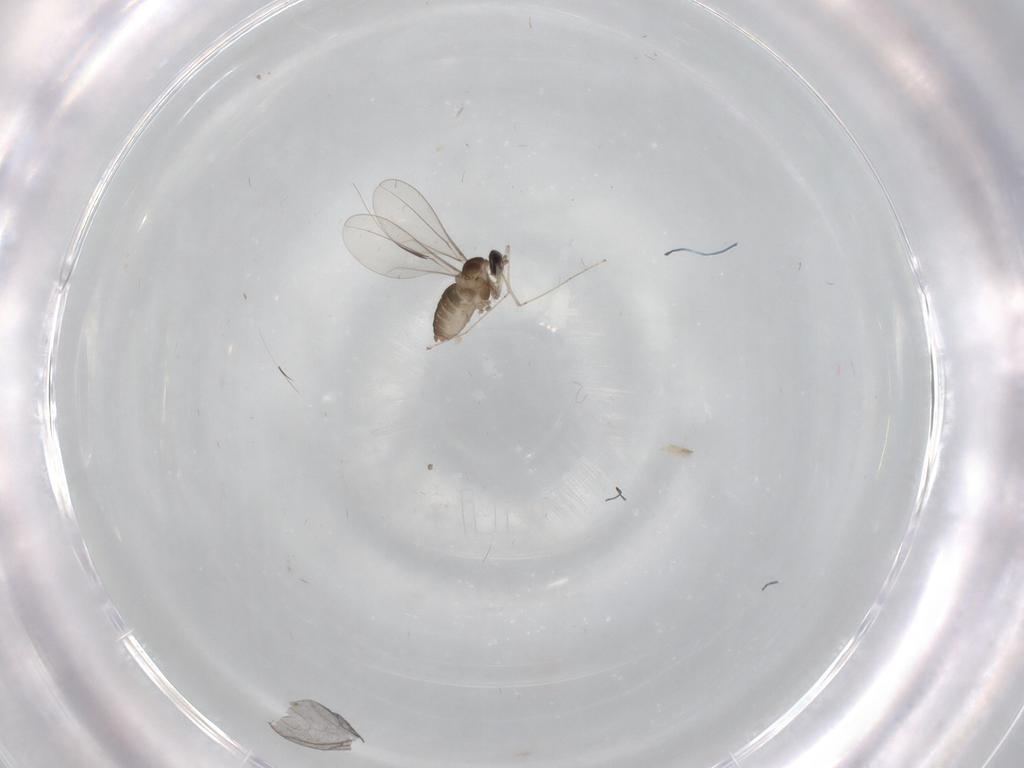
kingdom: Animalia
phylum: Arthropoda
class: Insecta
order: Diptera
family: Cecidomyiidae
